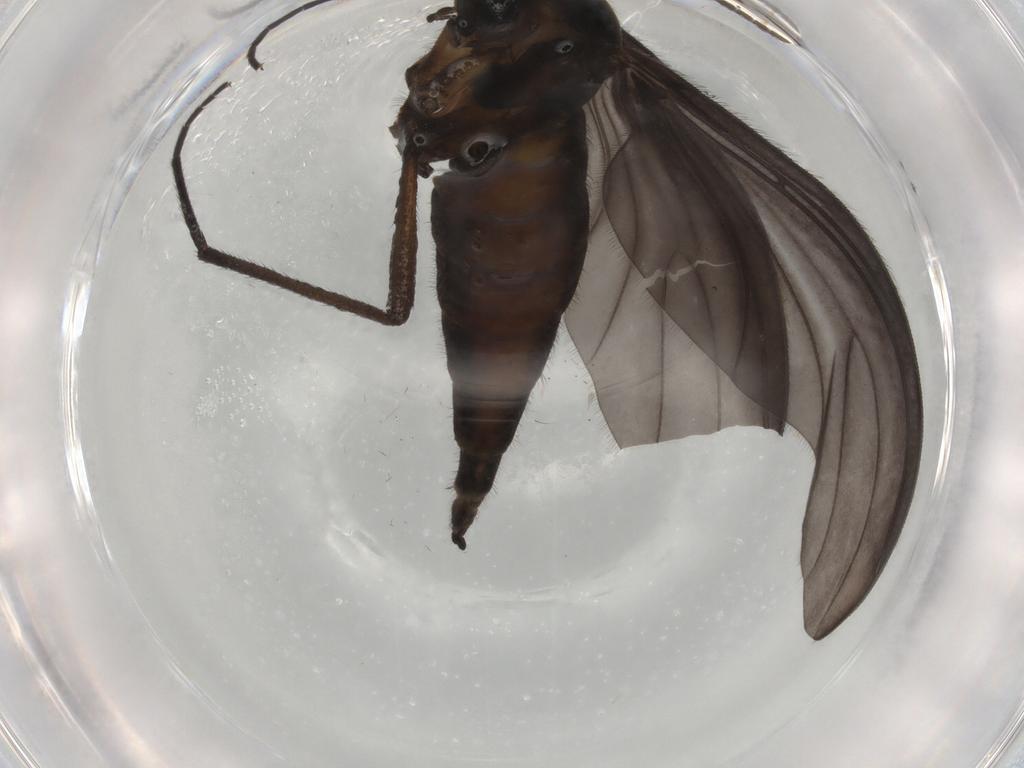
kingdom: Animalia
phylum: Arthropoda
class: Insecta
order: Diptera
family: Sciaridae
